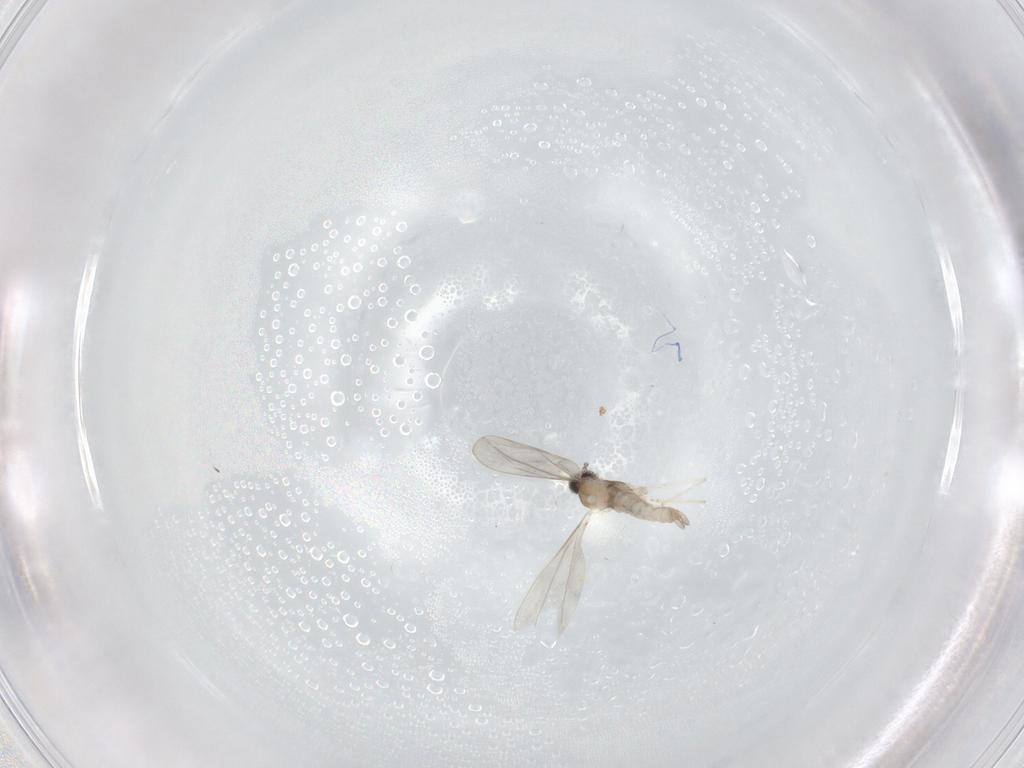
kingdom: Animalia
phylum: Arthropoda
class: Insecta
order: Diptera
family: Cecidomyiidae
